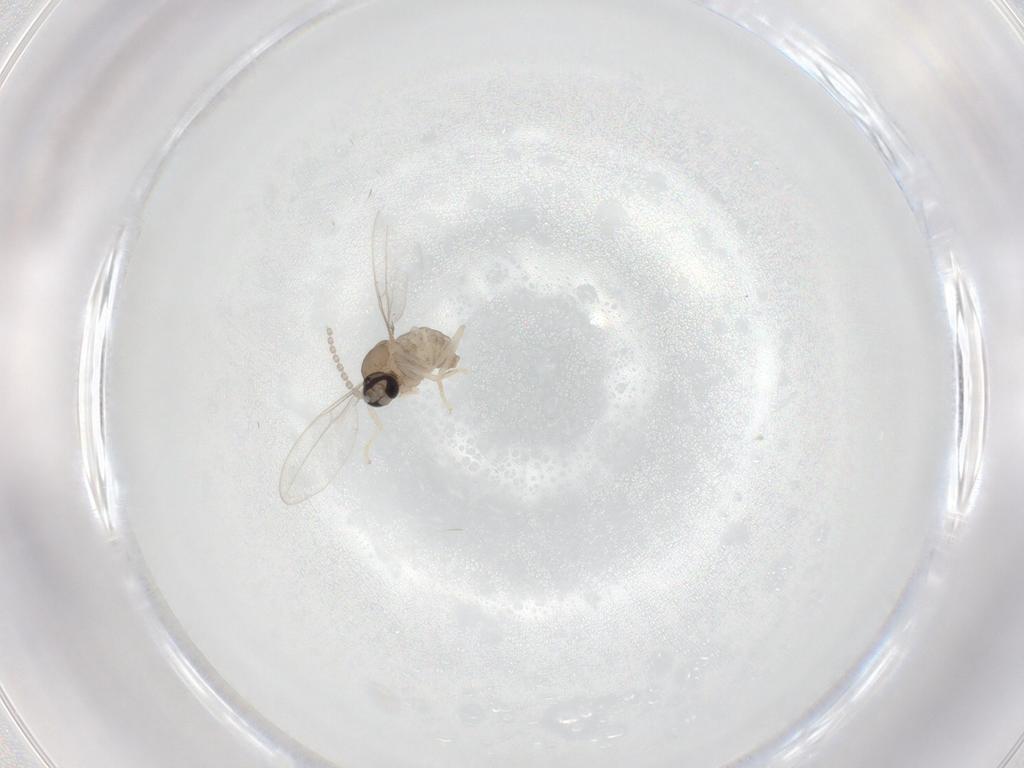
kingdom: Animalia
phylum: Arthropoda
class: Insecta
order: Diptera
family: Cecidomyiidae
